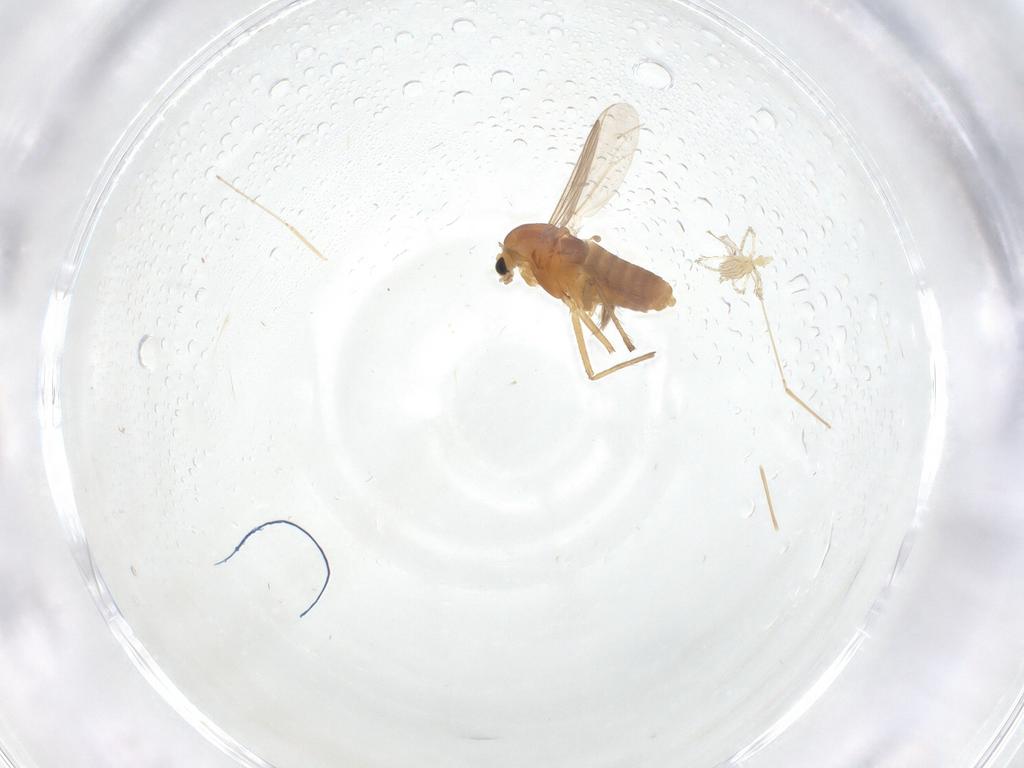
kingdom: Animalia
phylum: Arthropoda
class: Insecta
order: Diptera
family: Chironomidae
